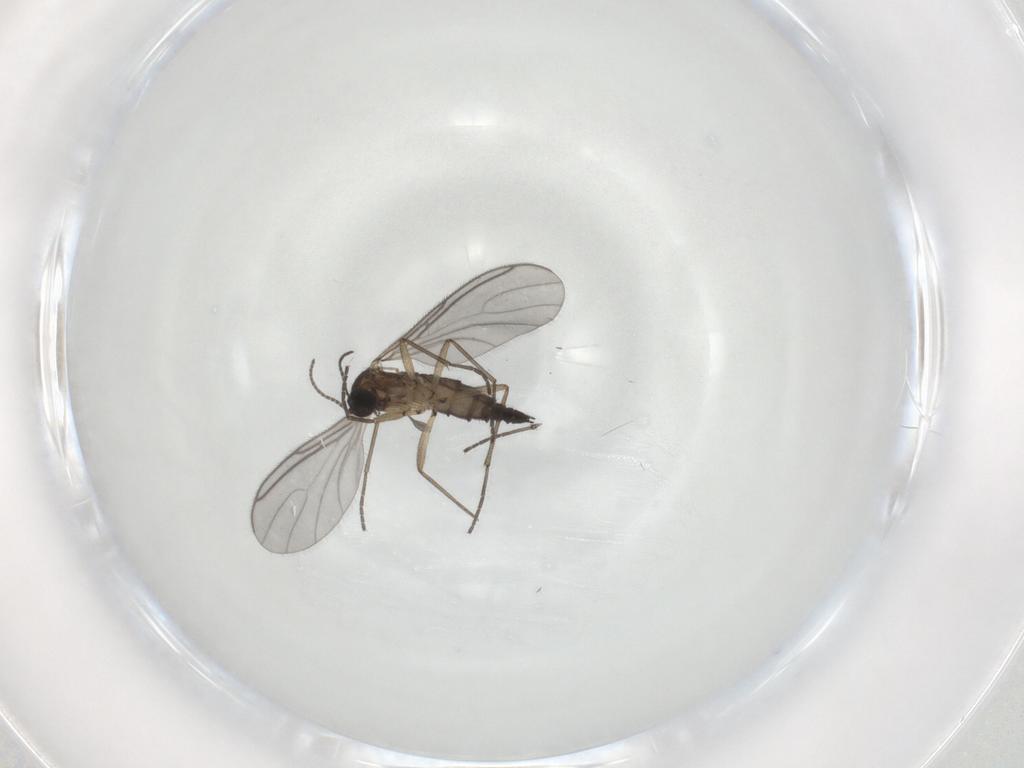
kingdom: Animalia
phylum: Arthropoda
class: Insecta
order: Diptera
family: Sciaridae
